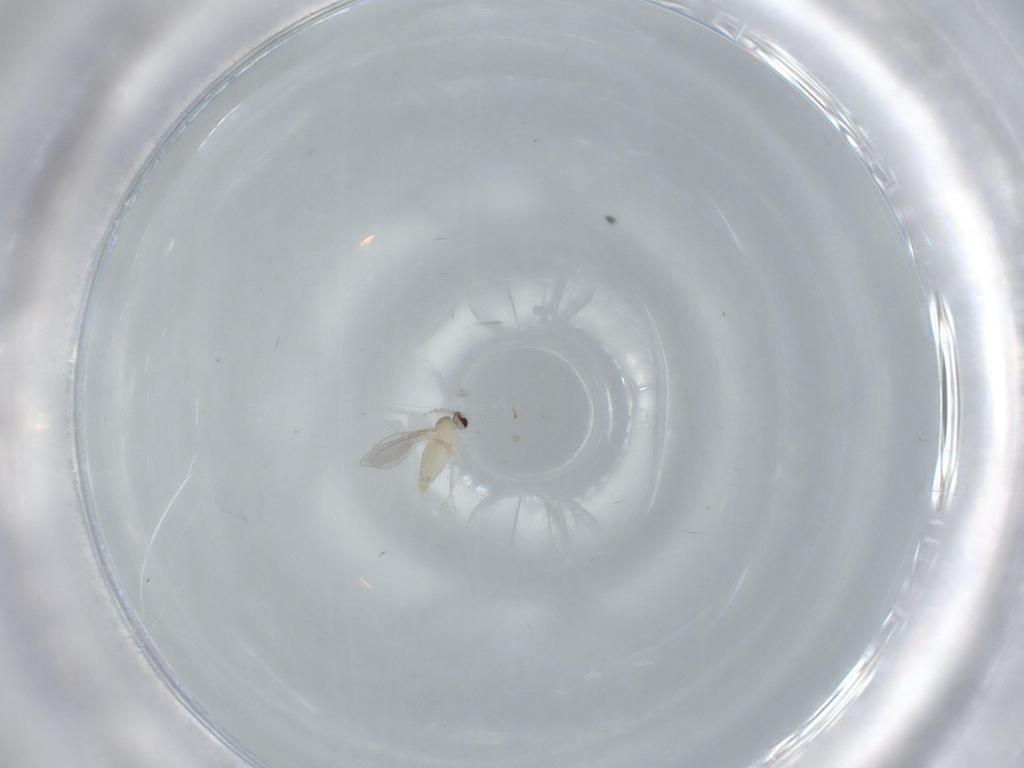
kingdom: Animalia
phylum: Arthropoda
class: Insecta
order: Diptera
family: Cecidomyiidae
